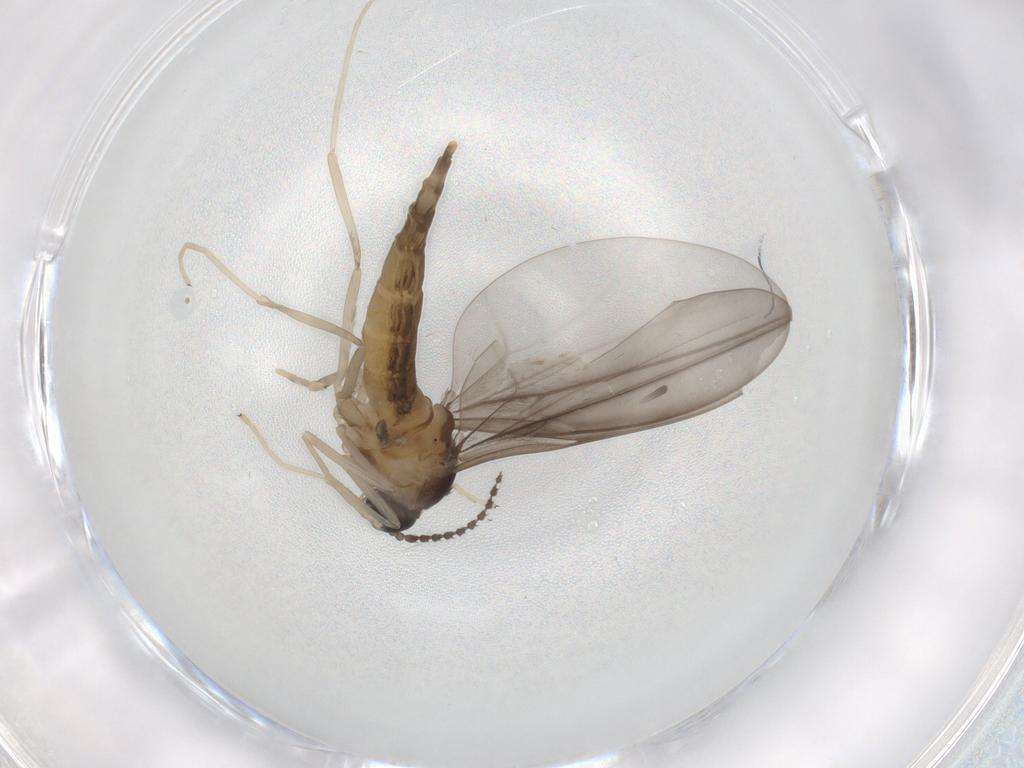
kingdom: Animalia
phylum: Arthropoda
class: Insecta
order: Diptera
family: Cecidomyiidae
